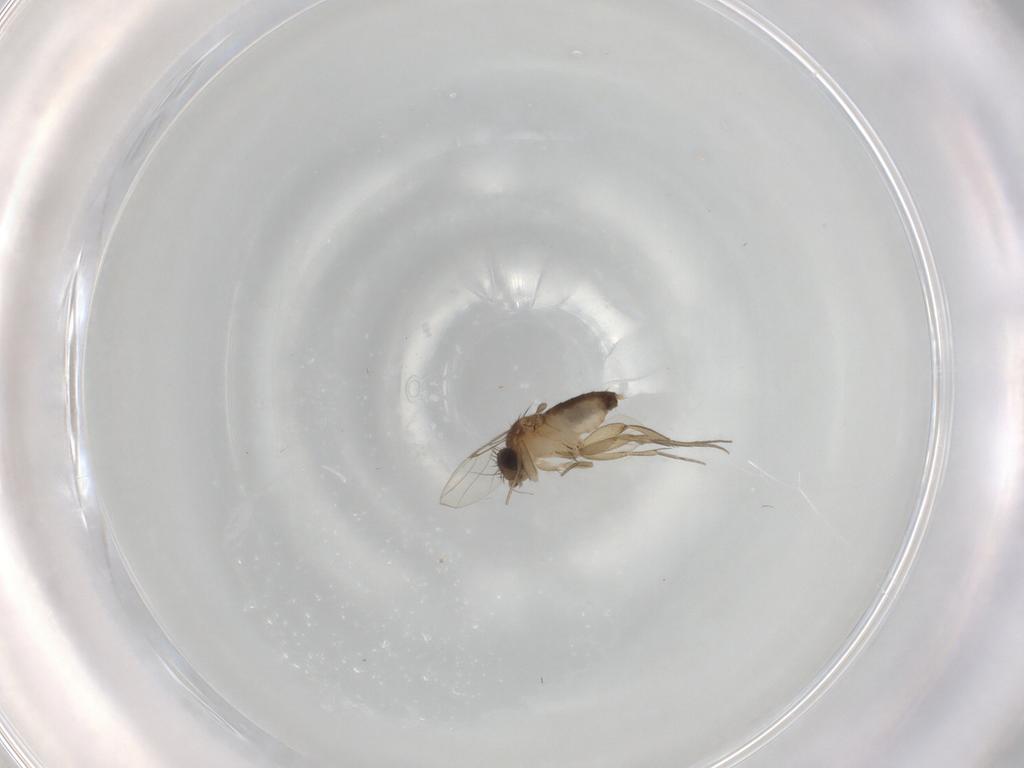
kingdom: Animalia
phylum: Arthropoda
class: Insecta
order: Diptera
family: Phoridae
